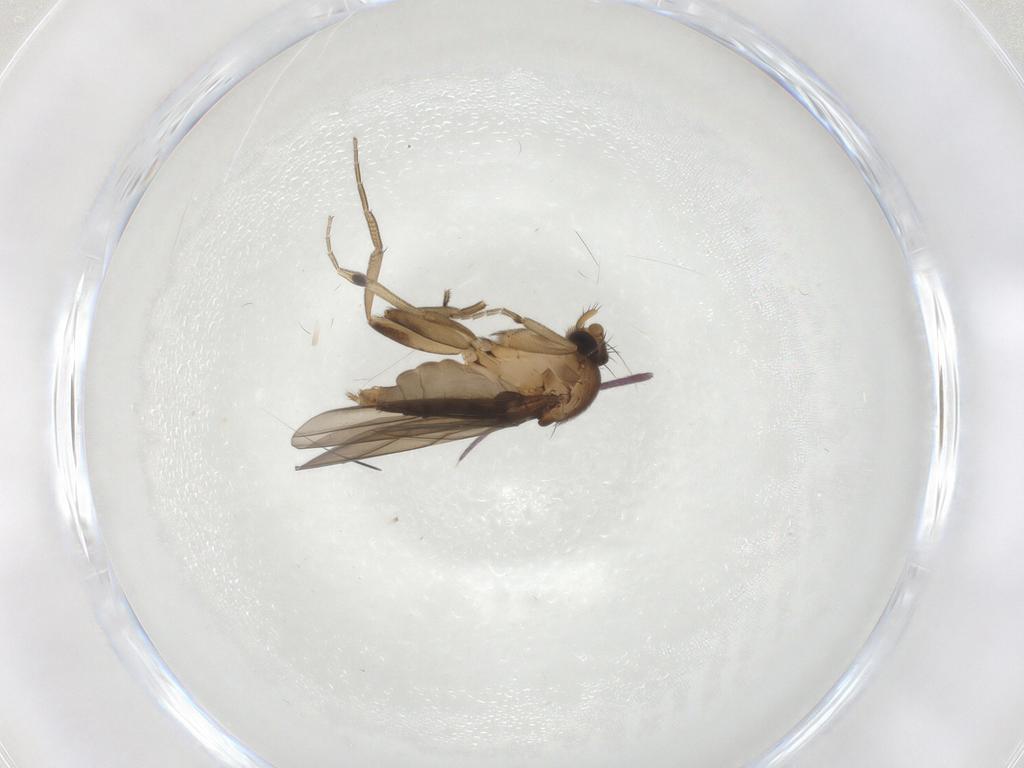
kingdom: Animalia
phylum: Arthropoda
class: Insecta
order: Diptera
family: Phoridae
